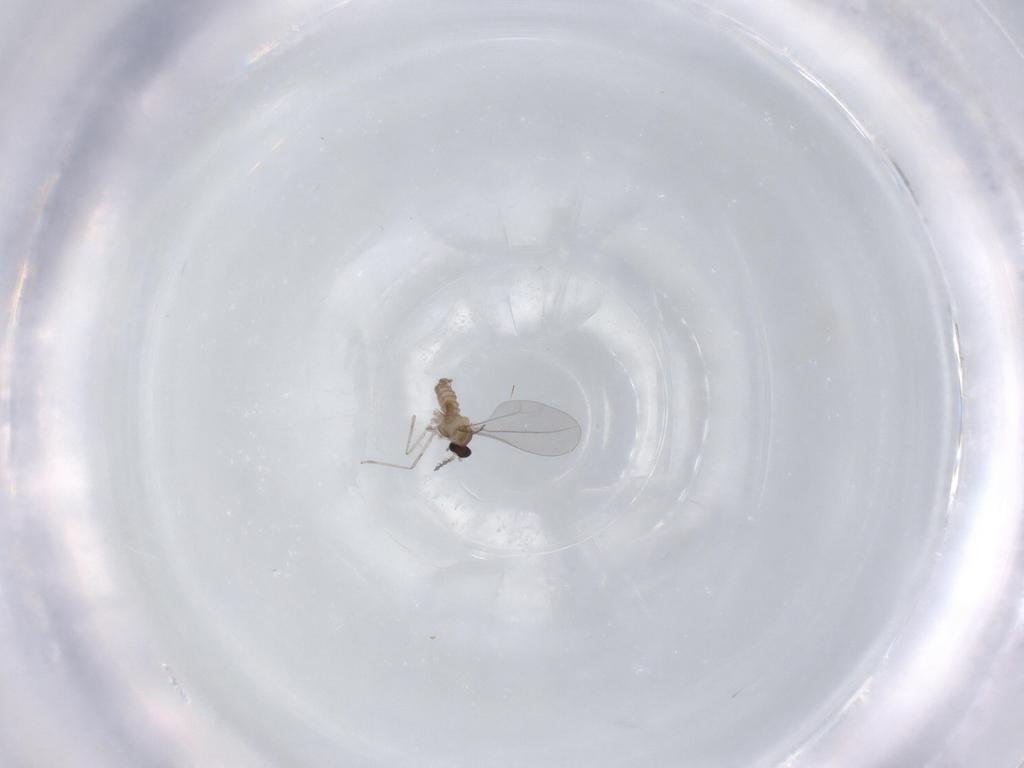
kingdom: Animalia
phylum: Arthropoda
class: Insecta
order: Diptera
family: Cecidomyiidae
